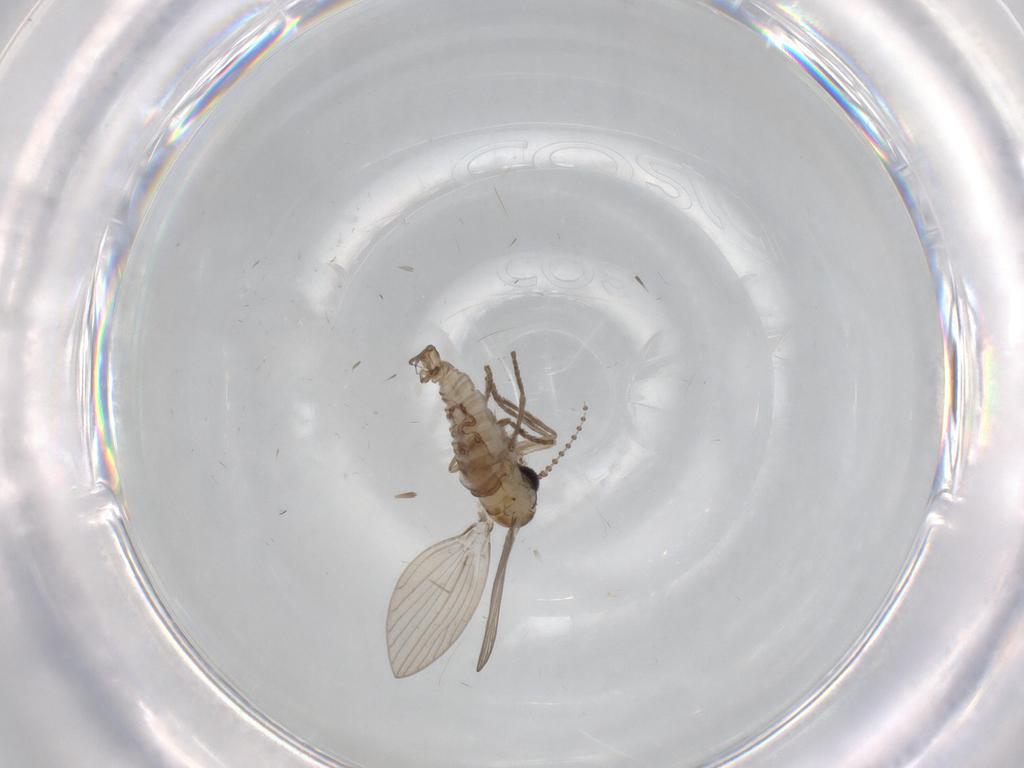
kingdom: Animalia
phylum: Arthropoda
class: Insecta
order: Diptera
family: Psychodidae
